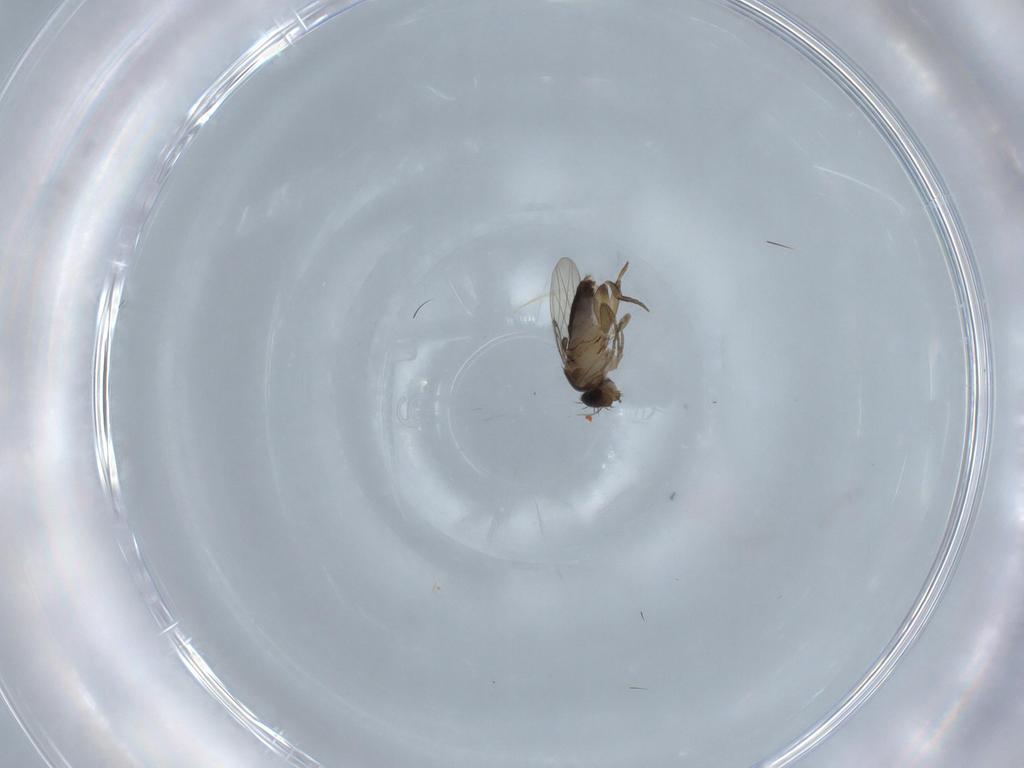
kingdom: Animalia
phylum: Arthropoda
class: Insecta
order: Diptera
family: Cecidomyiidae
